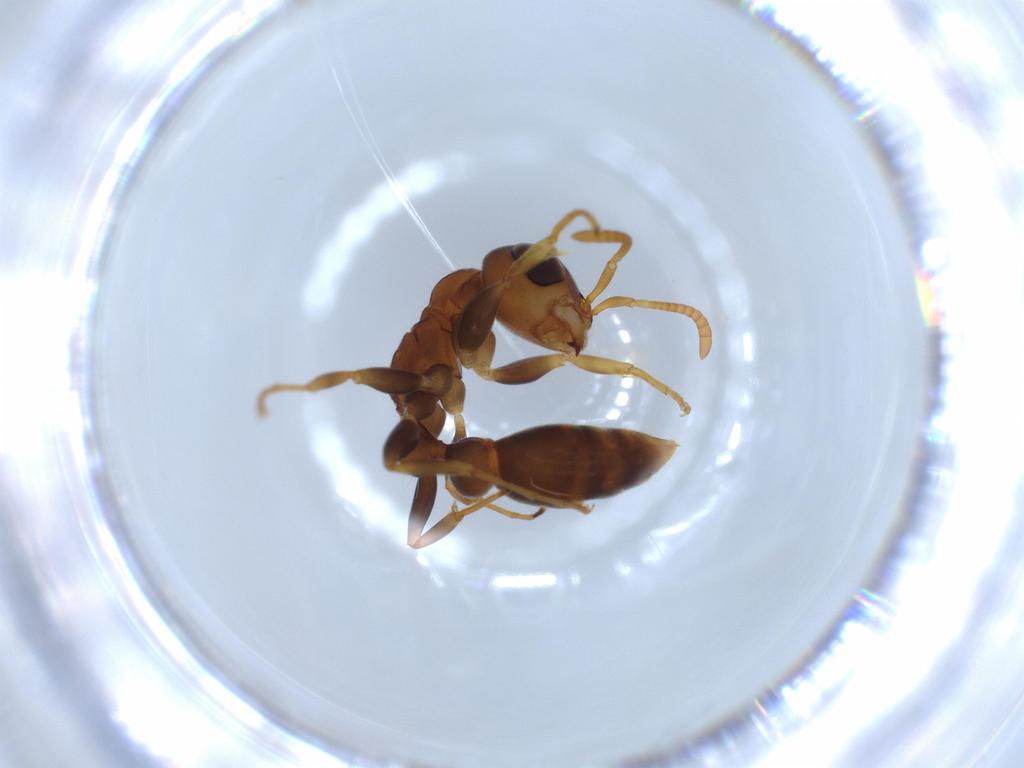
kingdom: Animalia
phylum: Arthropoda
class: Insecta
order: Hymenoptera
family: Formicidae
